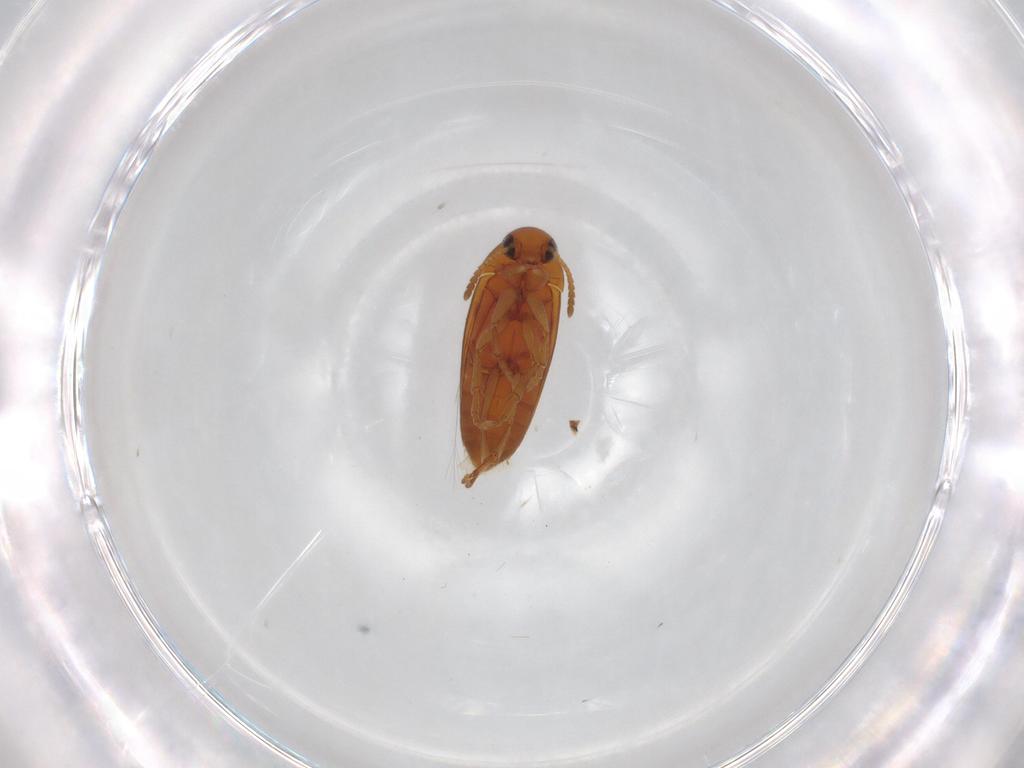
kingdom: Animalia
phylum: Arthropoda
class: Insecta
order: Coleoptera
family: Scraptiidae
